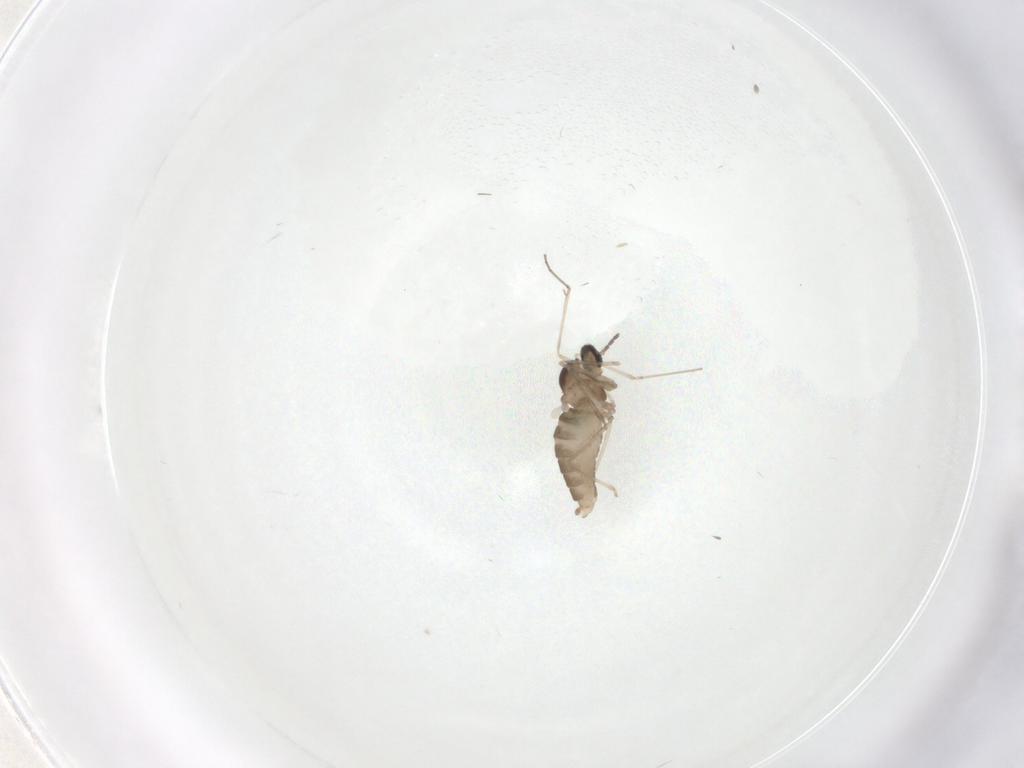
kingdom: Animalia
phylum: Arthropoda
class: Insecta
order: Diptera
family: Cecidomyiidae
